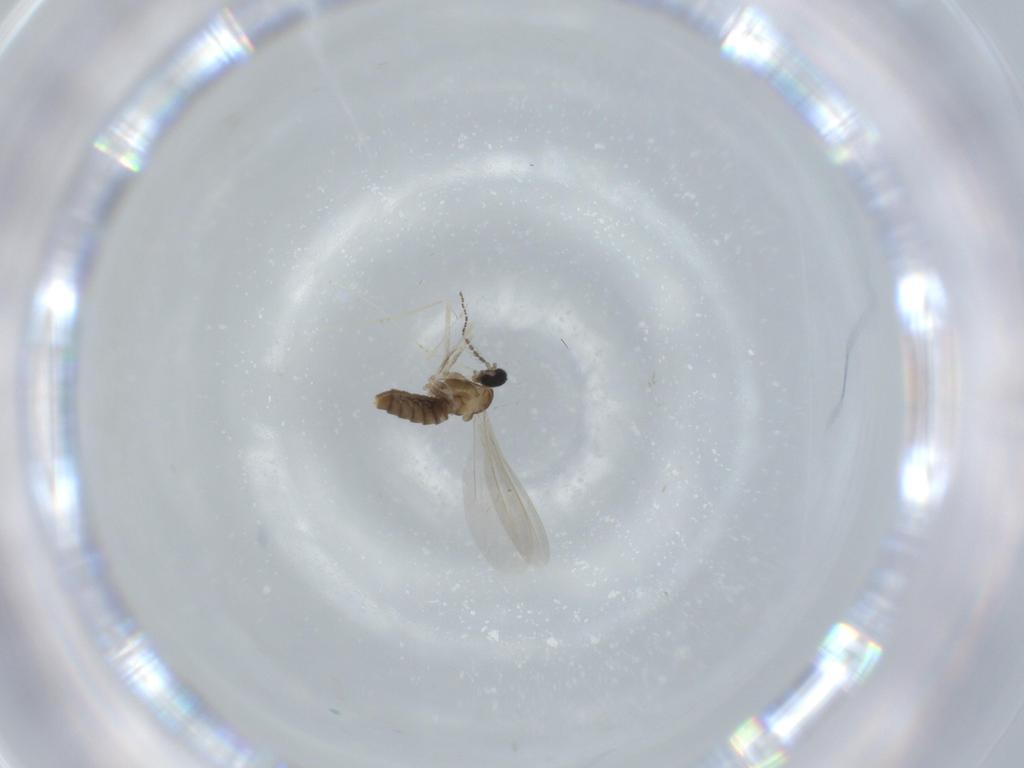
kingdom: Animalia
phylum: Arthropoda
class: Insecta
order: Diptera
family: Cecidomyiidae
